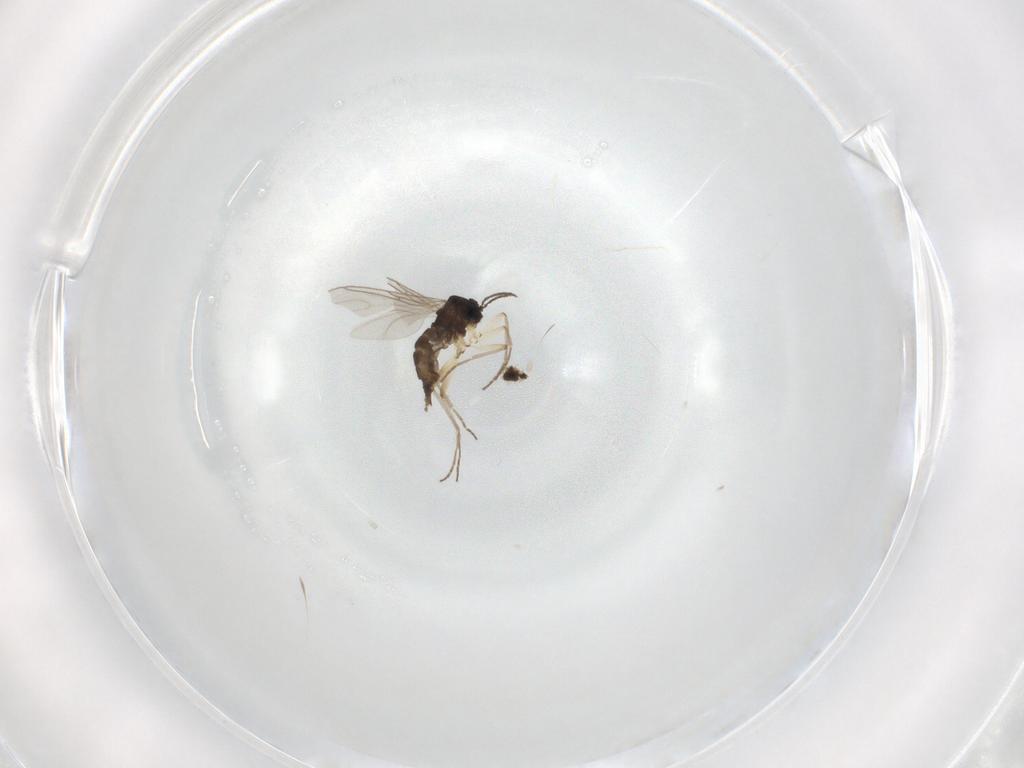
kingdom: Animalia
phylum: Arthropoda
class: Insecta
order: Diptera
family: Sciaridae
